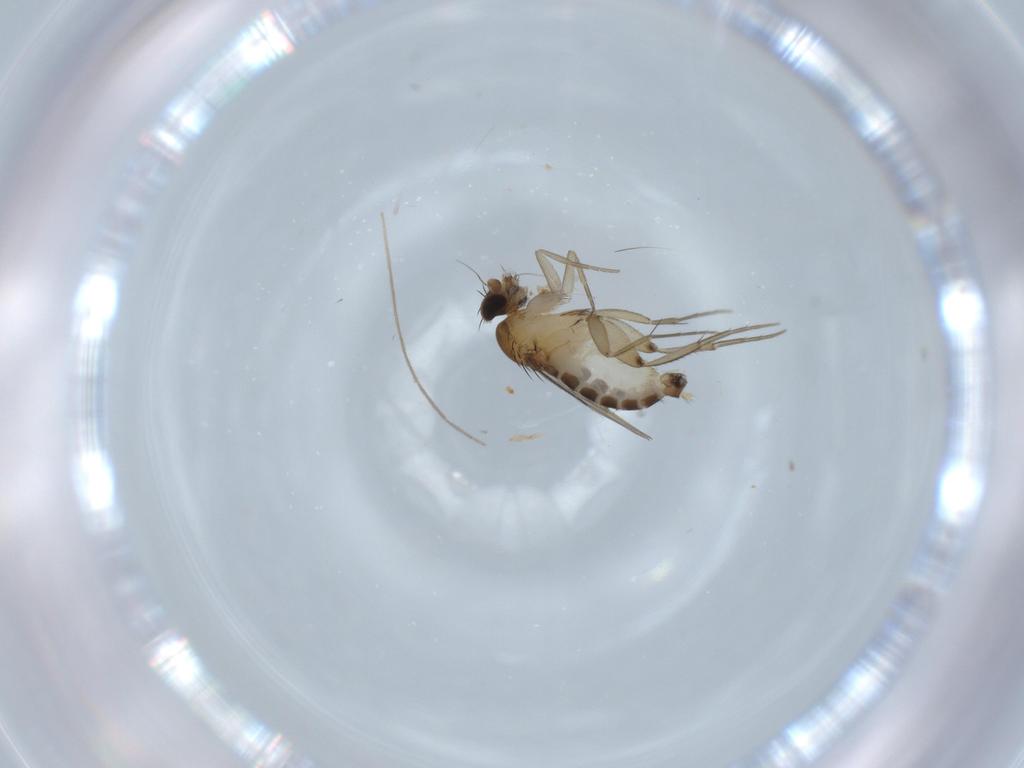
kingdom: Animalia
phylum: Arthropoda
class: Insecta
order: Diptera
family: Phoridae
